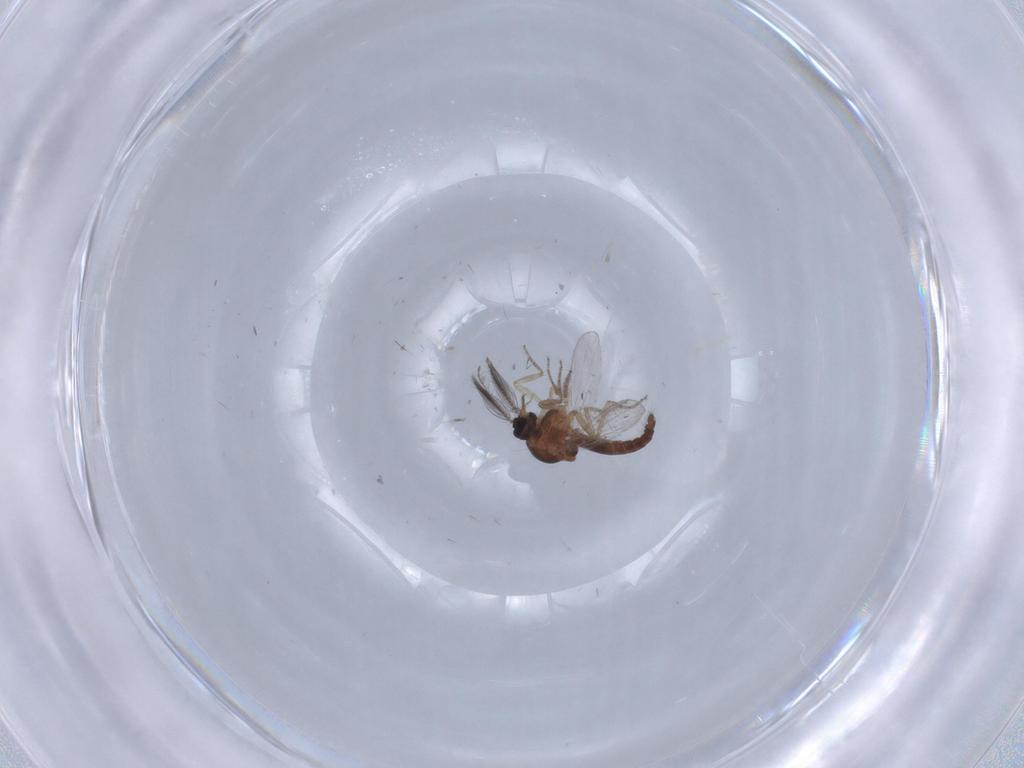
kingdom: Animalia
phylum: Arthropoda
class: Insecta
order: Diptera
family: Ceratopogonidae
